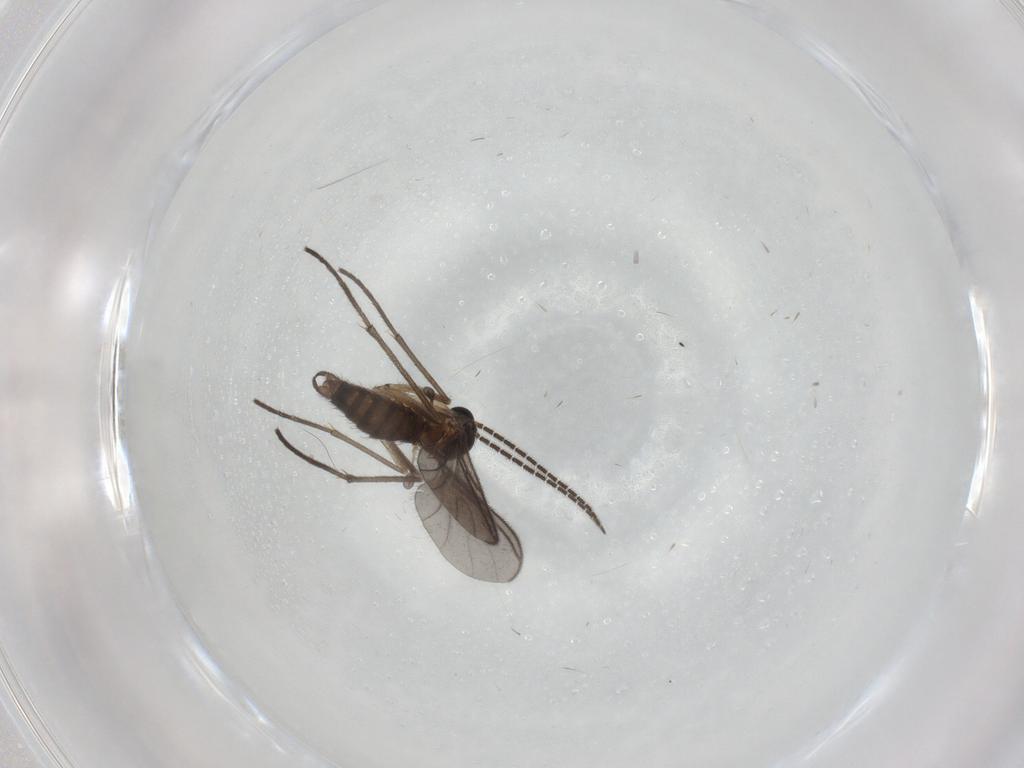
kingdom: Animalia
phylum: Arthropoda
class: Insecta
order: Diptera
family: Sciaridae
